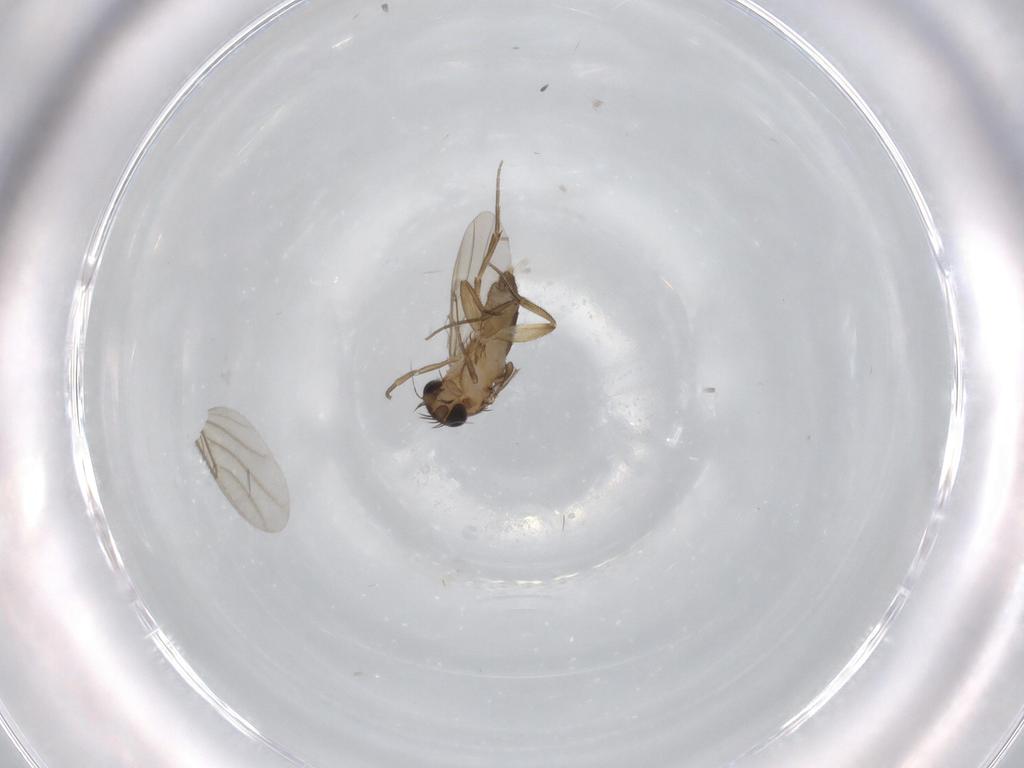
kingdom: Animalia
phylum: Arthropoda
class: Insecta
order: Diptera
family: Phoridae
